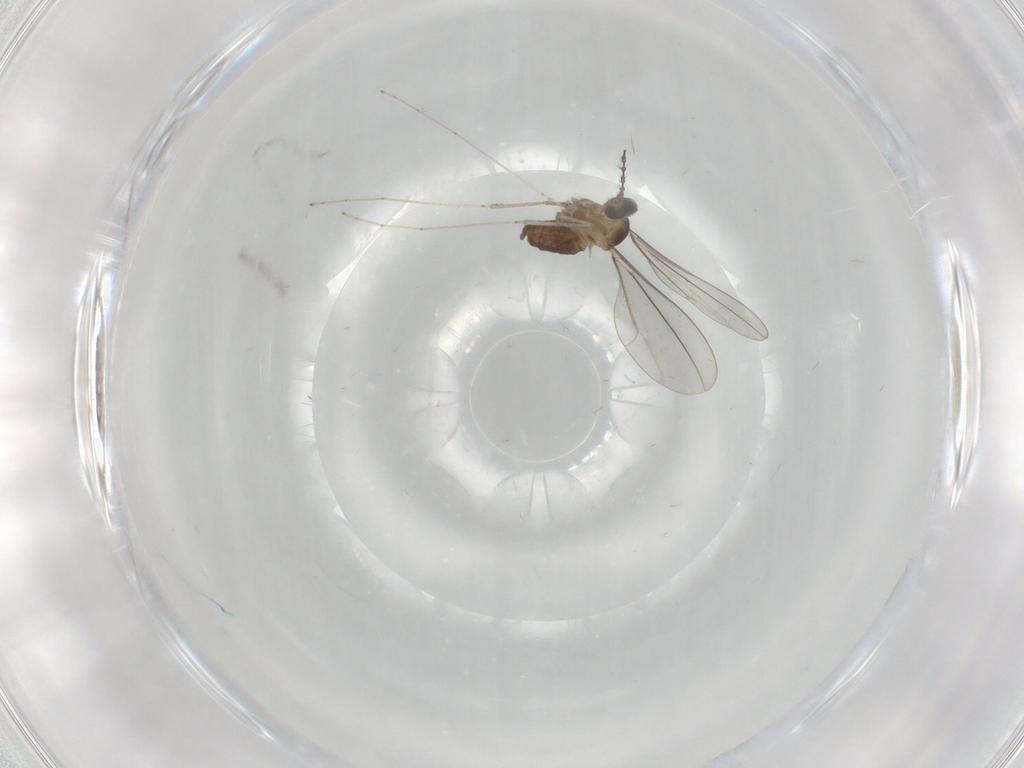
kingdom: Animalia
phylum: Arthropoda
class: Insecta
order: Diptera
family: Cecidomyiidae
